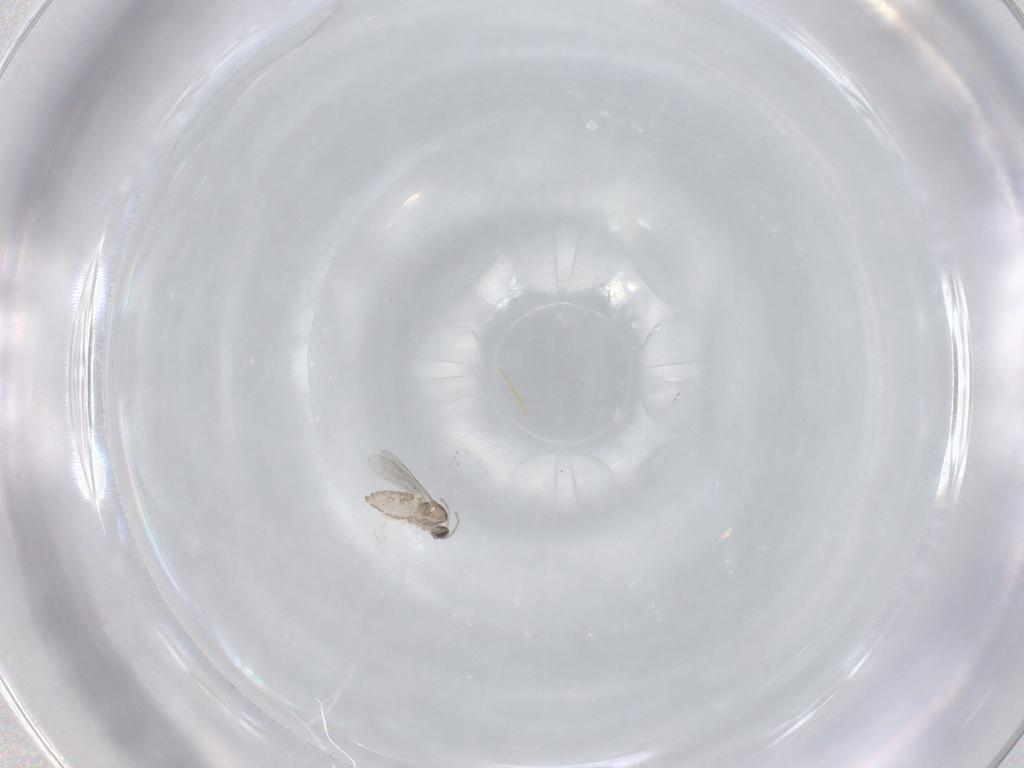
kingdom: Animalia
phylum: Arthropoda
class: Insecta
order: Diptera
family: Cecidomyiidae
